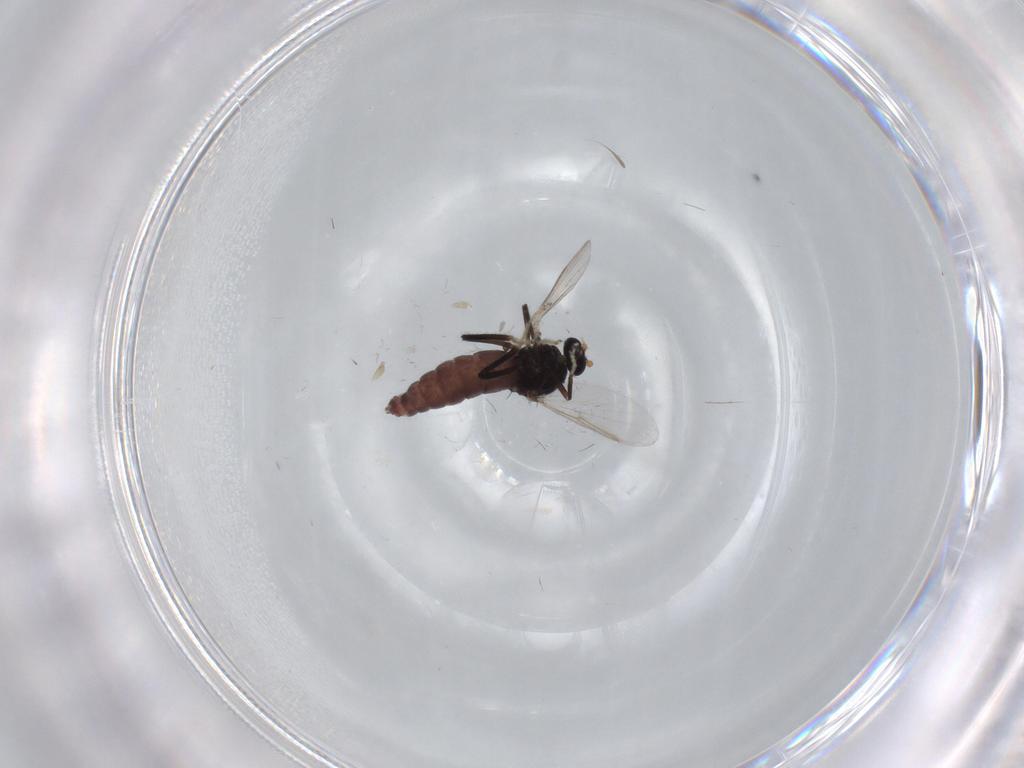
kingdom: Animalia
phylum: Arthropoda
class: Insecta
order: Diptera
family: Ceratopogonidae
